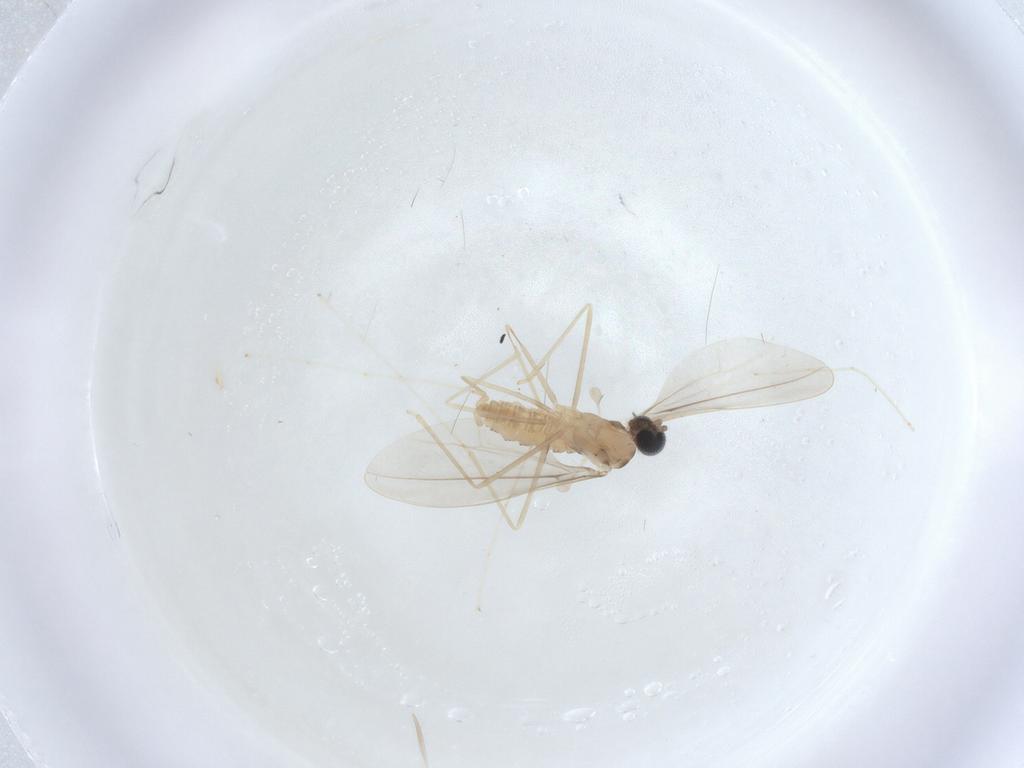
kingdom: Animalia
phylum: Arthropoda
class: Insecta
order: Diptera
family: Cecidomyiidae
